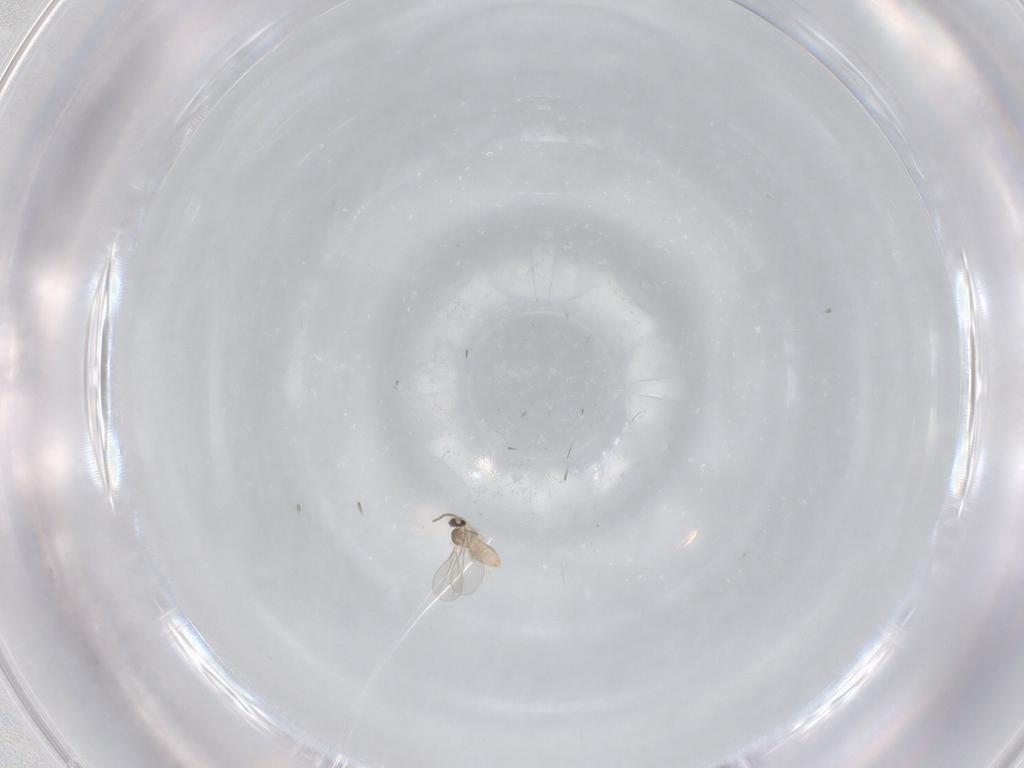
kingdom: Animalia
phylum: Arthropoda
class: Insecta
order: Diptera
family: Cecidomyiidae
